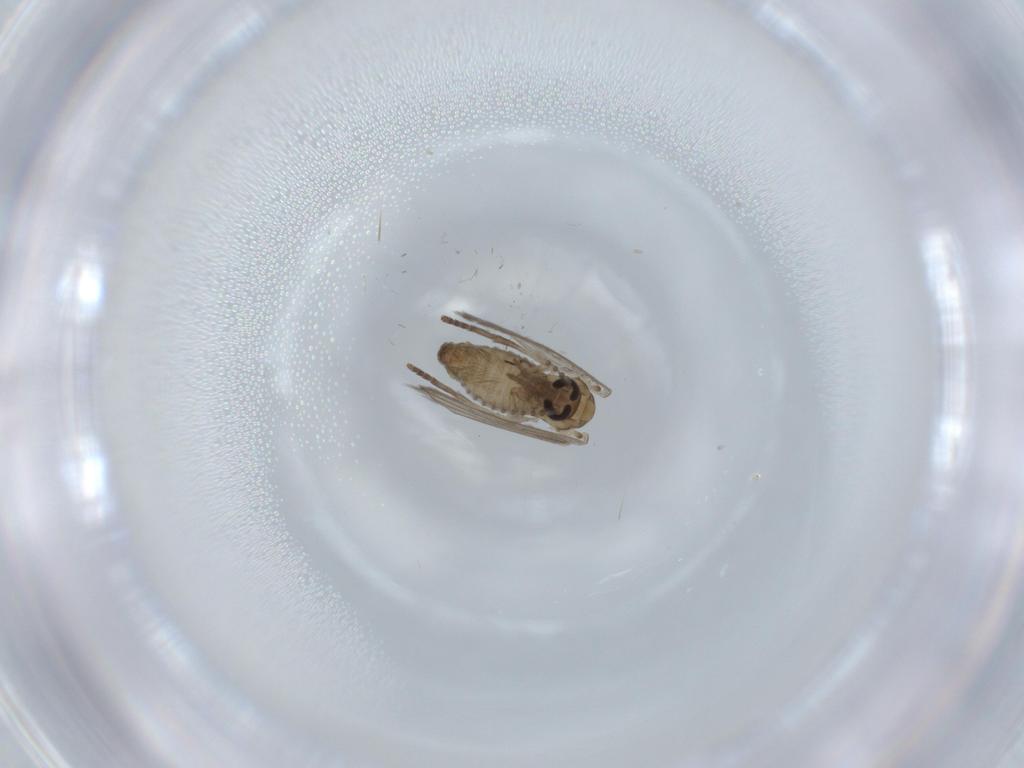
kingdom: Animalia
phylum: Arthropoda
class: Insecta
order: Diptera
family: Psychodidae
